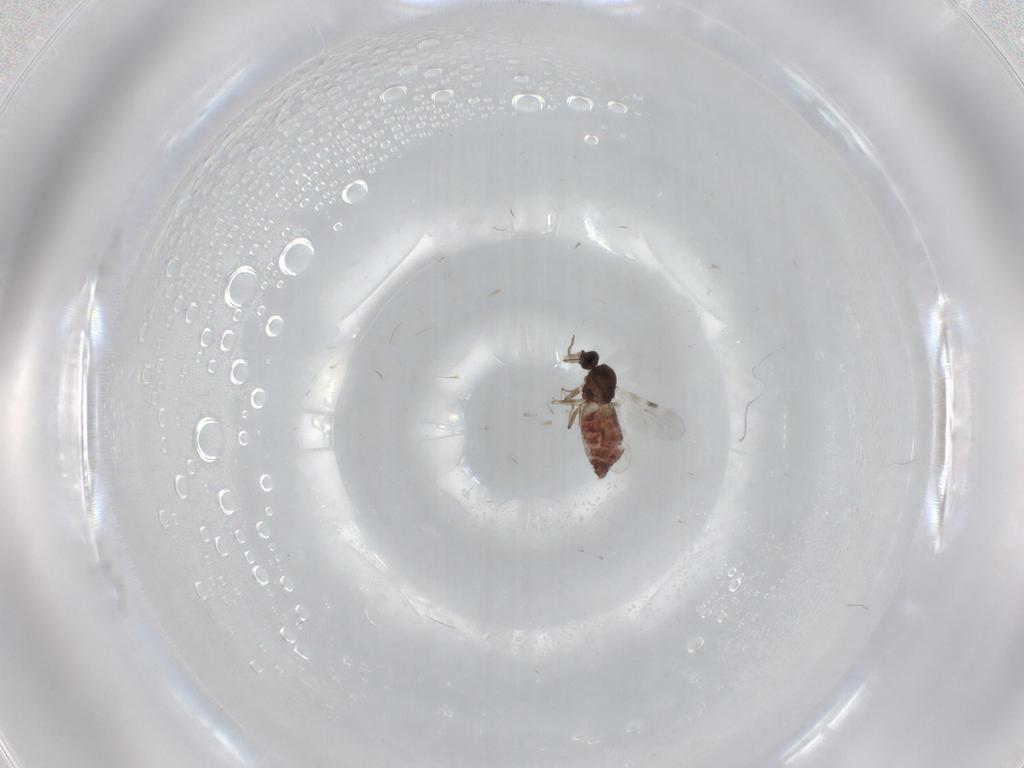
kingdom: Animalia
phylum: Arthropoda
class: Insecta
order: Diptera
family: Limoniidae
